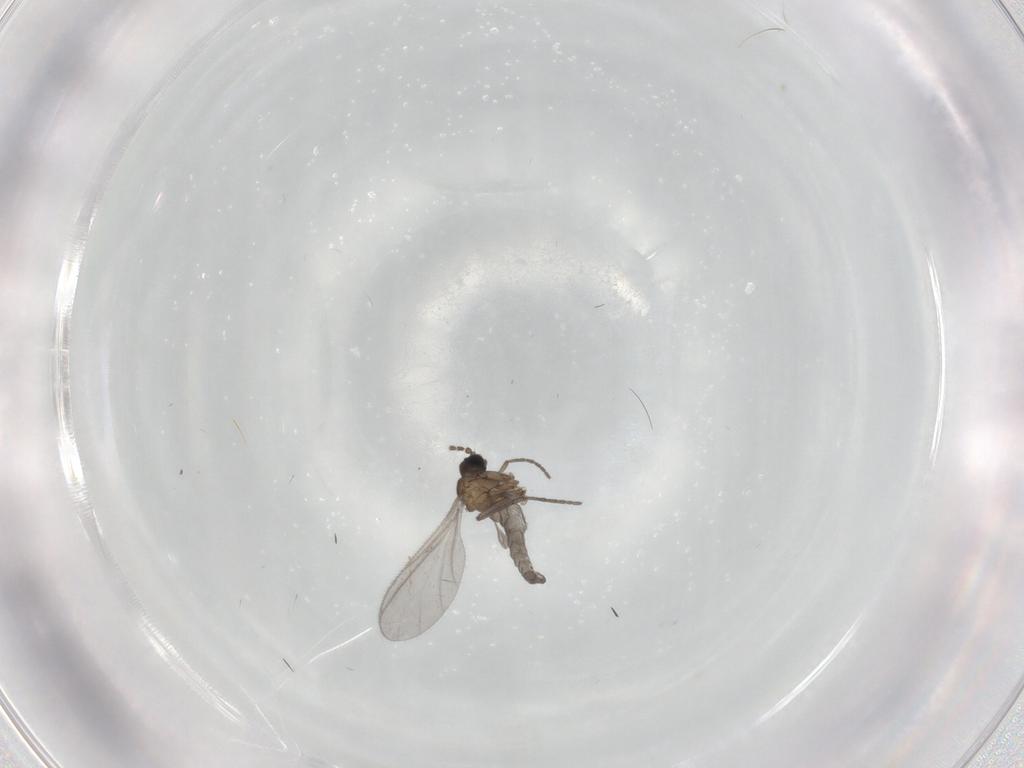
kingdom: Animalia
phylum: Arthropoda
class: Insecta
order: Diptera
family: Sciaridae
